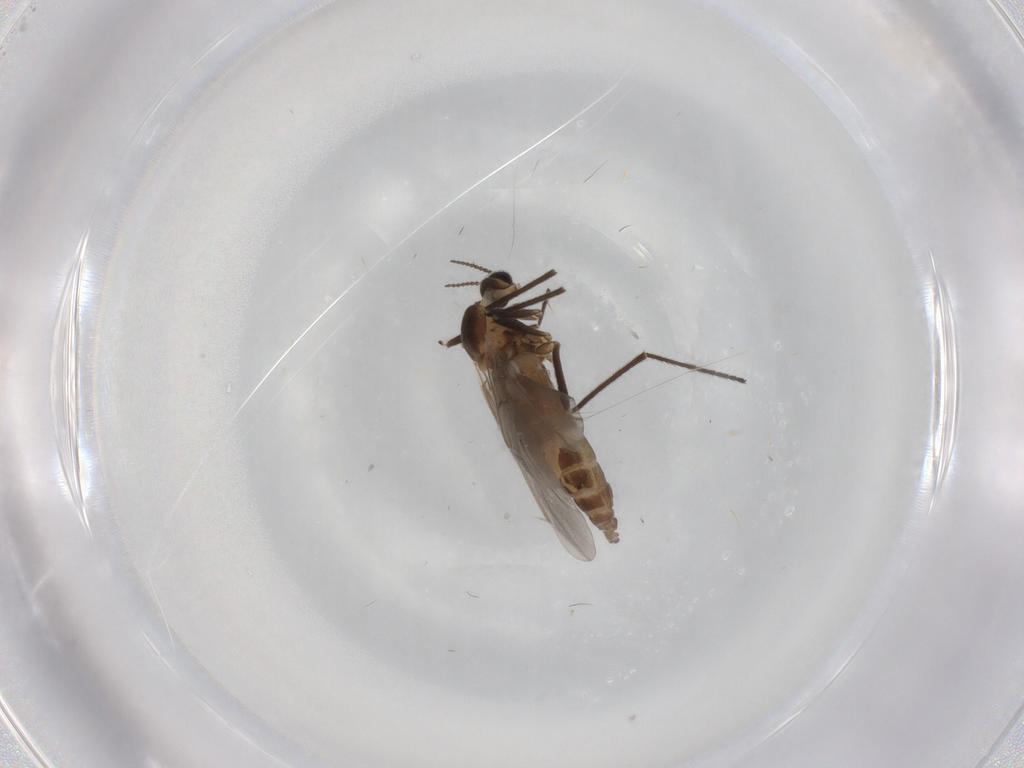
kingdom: Animalia
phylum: Arthropoda
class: Insecta
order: Diptera
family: Cecidomyiidae
